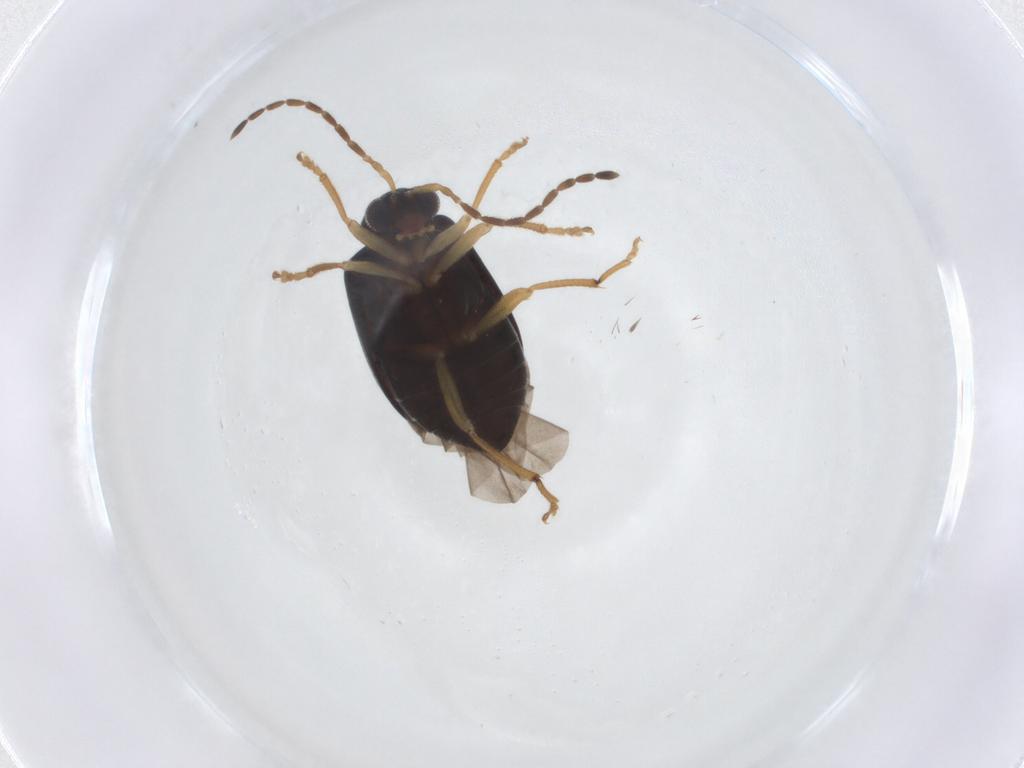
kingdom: Animalia
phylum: Arthropoda
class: Insecta
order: Coleoptera
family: Chrysomelidae
